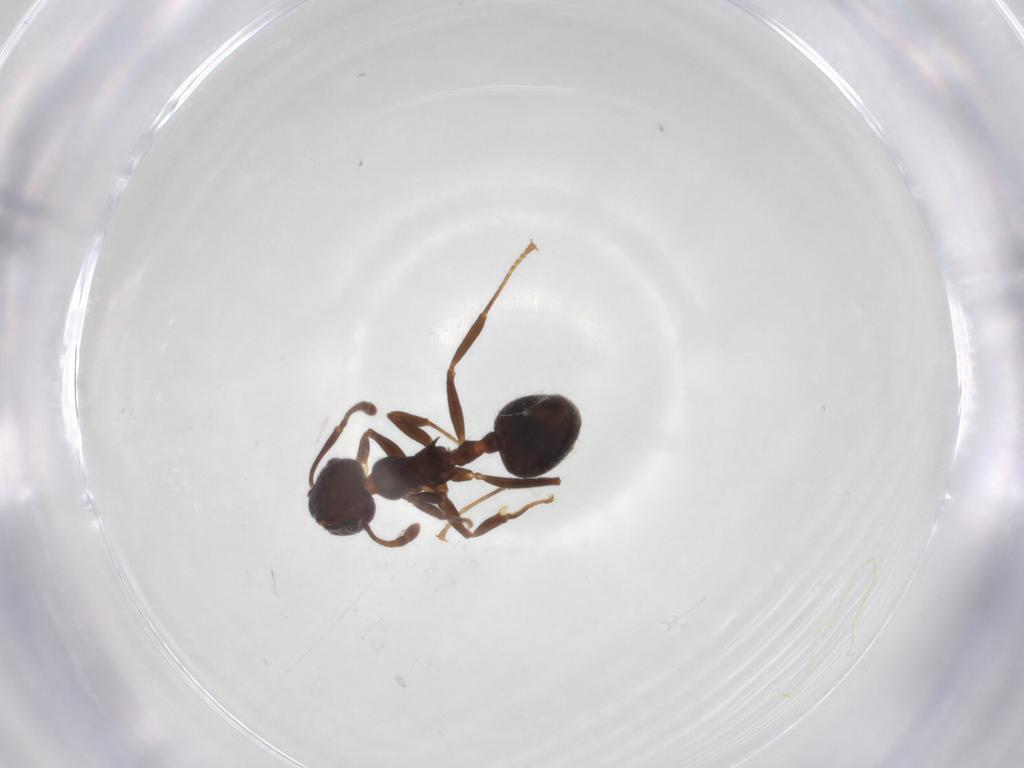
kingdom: Animalia
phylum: Arthropoda
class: Insecta
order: Hymenoptera
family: Formicidae
